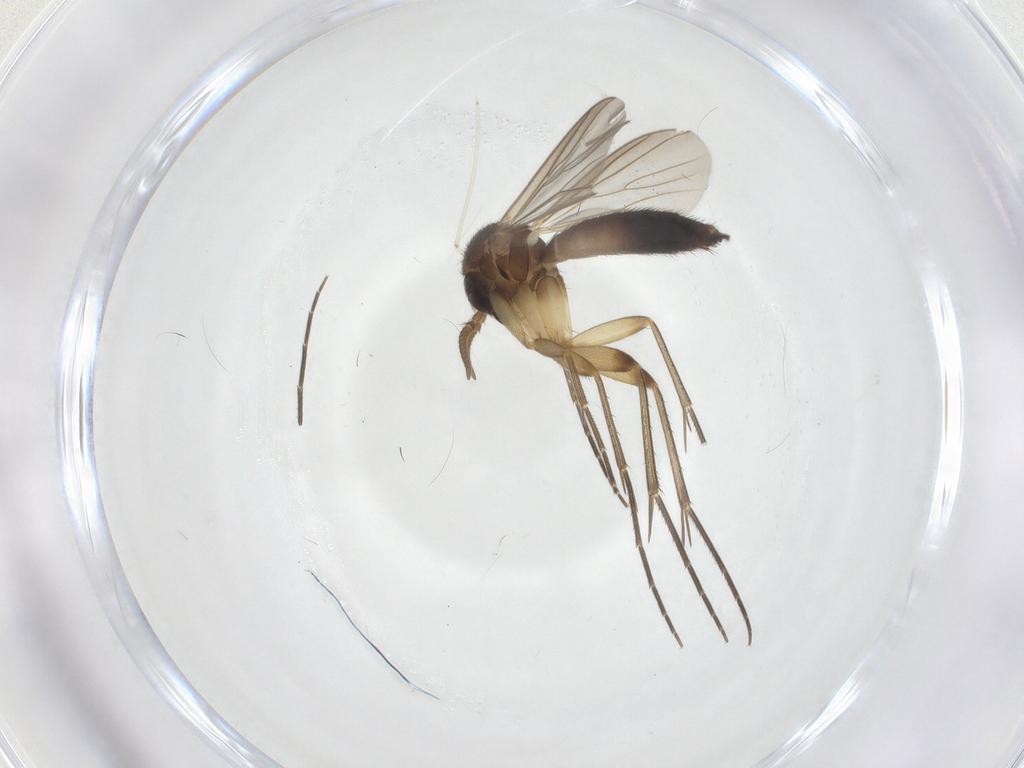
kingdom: Animalia
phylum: Arthropoda
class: Insecta
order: Diptera
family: Mycetophilidae
